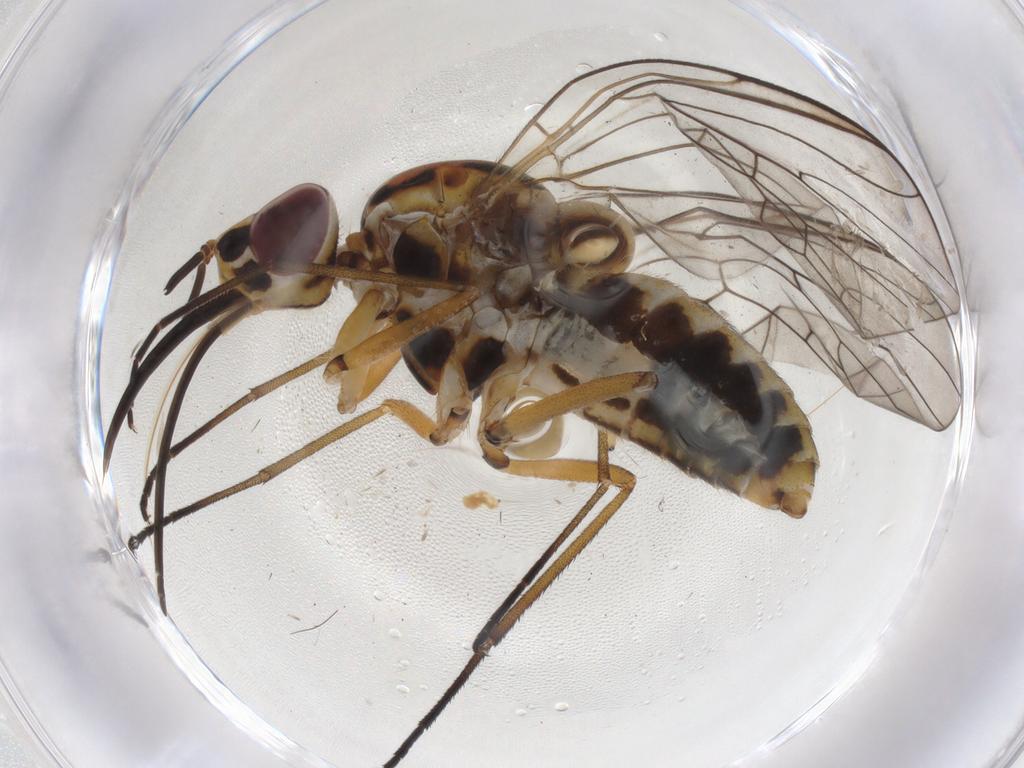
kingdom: Animalia
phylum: Arthropoda
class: Insecta
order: Diptera
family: Bombyliidae
